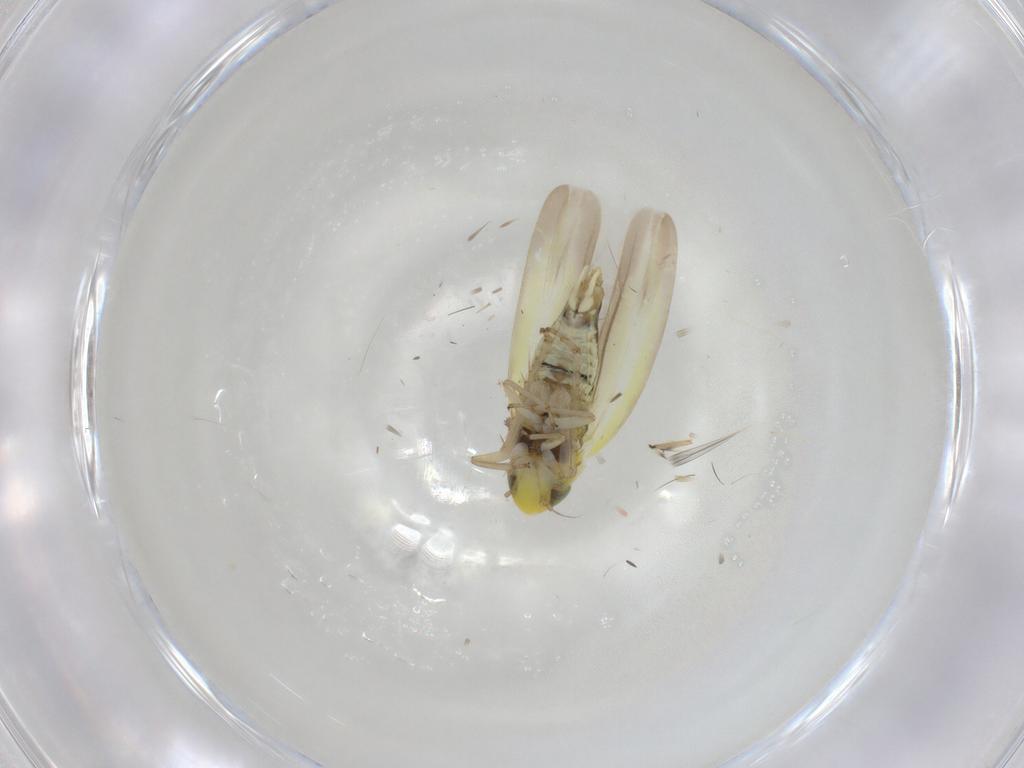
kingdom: Animalia
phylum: Arthropoda
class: Insecta
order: Hemiptera
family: Cicadellidae
